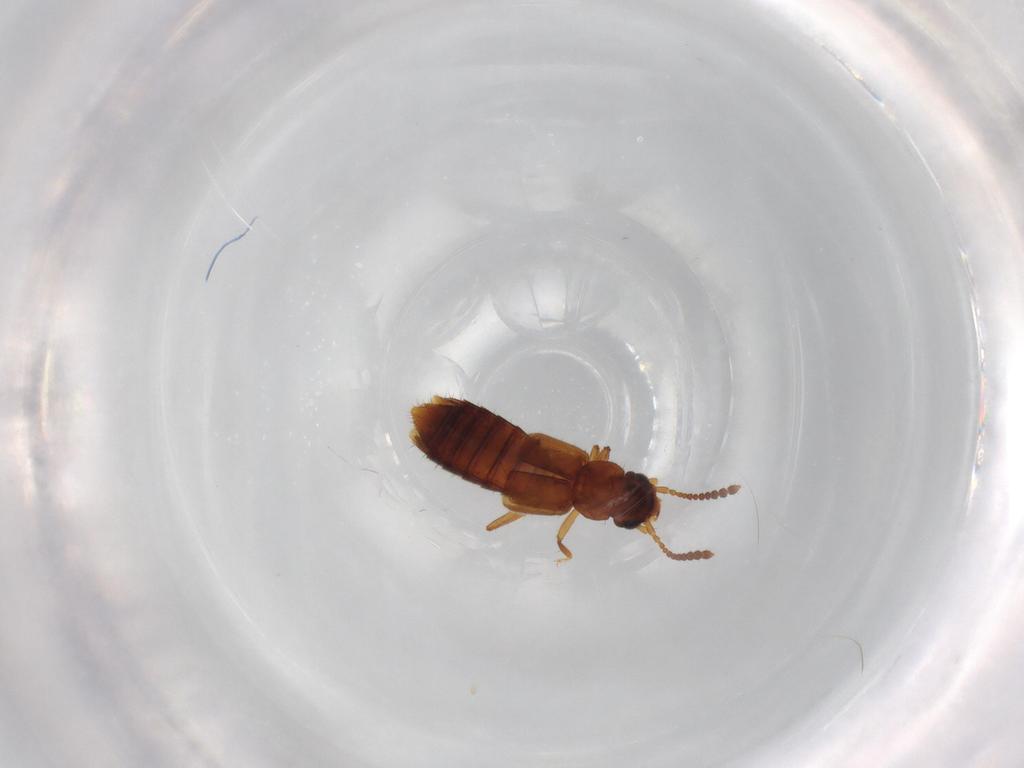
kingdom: Animalia
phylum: Arthropoda
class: Insecta
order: Coleoptera
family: Staphylinidae
